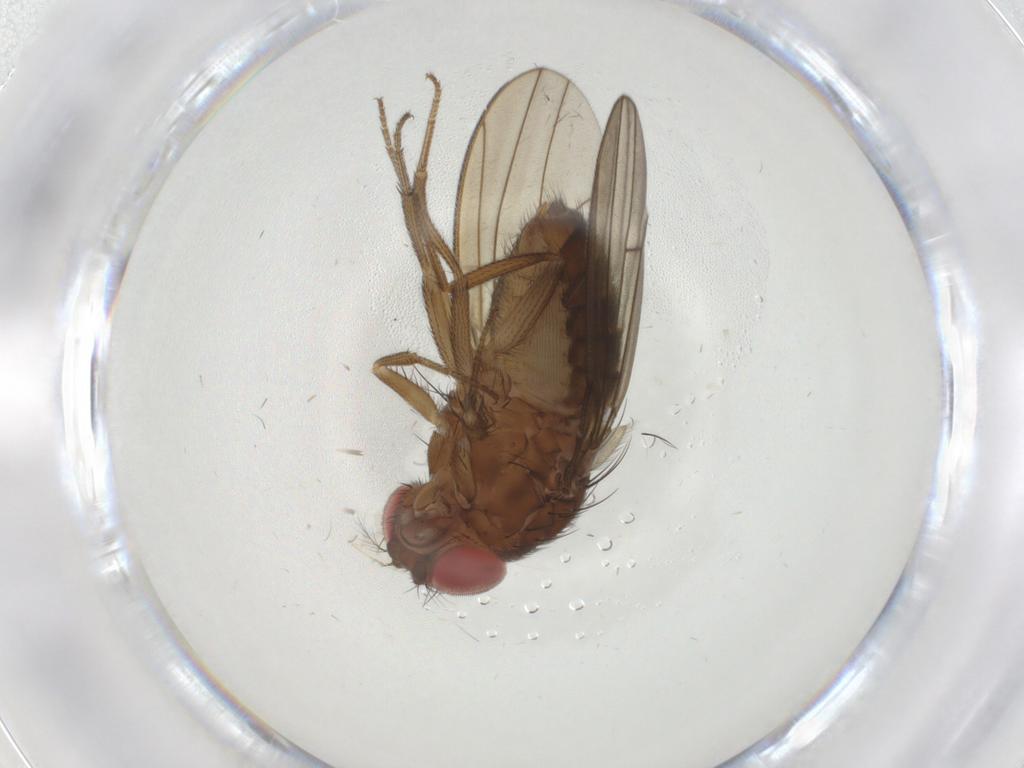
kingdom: Animalia
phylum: Arthropoda
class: Insecta
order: Diptera
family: Drosophilidae
